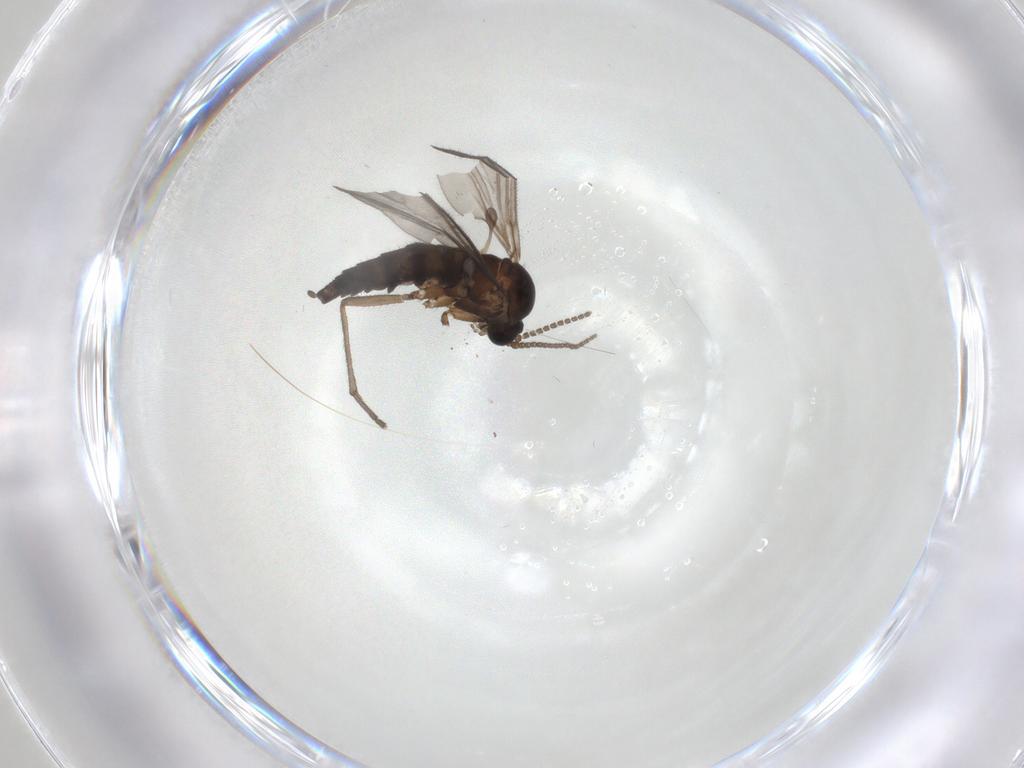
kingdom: Animalia
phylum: Arthropoda
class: Insecta
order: Diptera
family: Sciaridae
